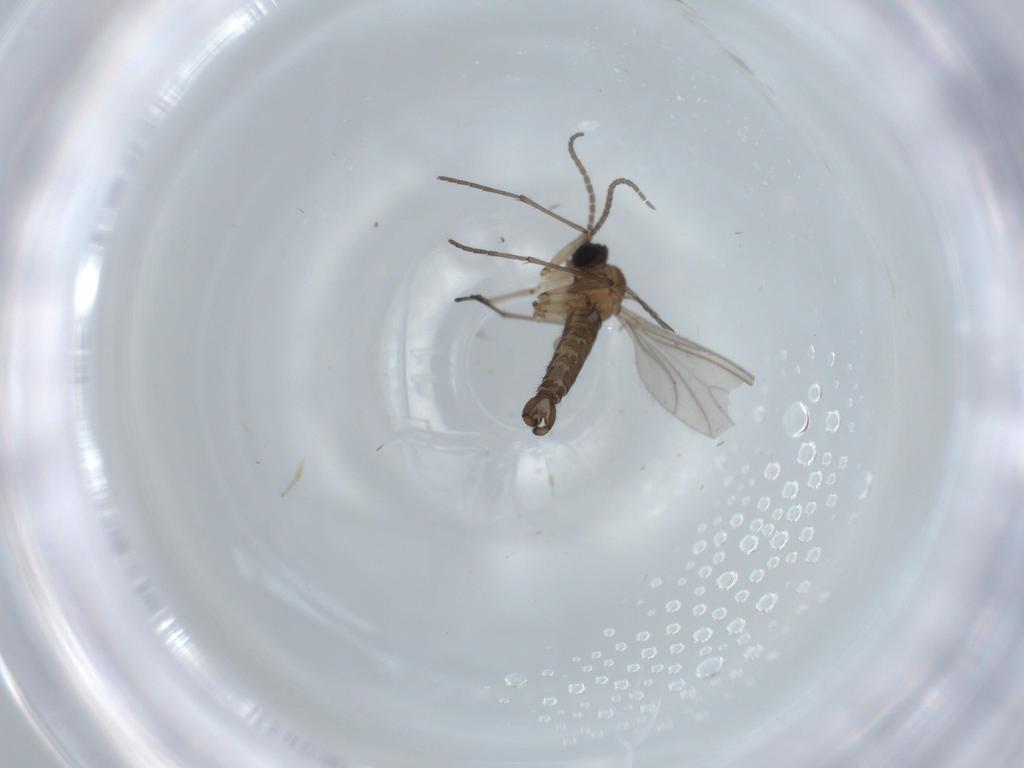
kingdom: Animalia
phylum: Arthropoda
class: Insecta
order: Diptera
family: Sciaridae
